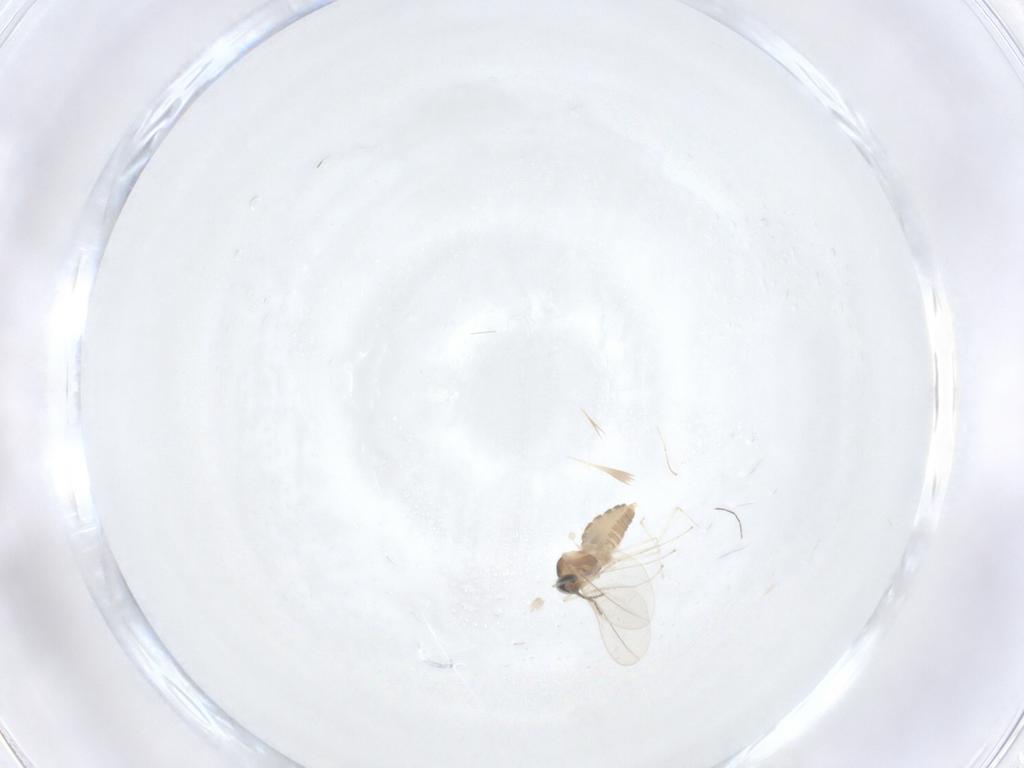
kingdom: Animalia
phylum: Arthropoda
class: Insecta
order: Diptera
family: Cecidomyiidae
